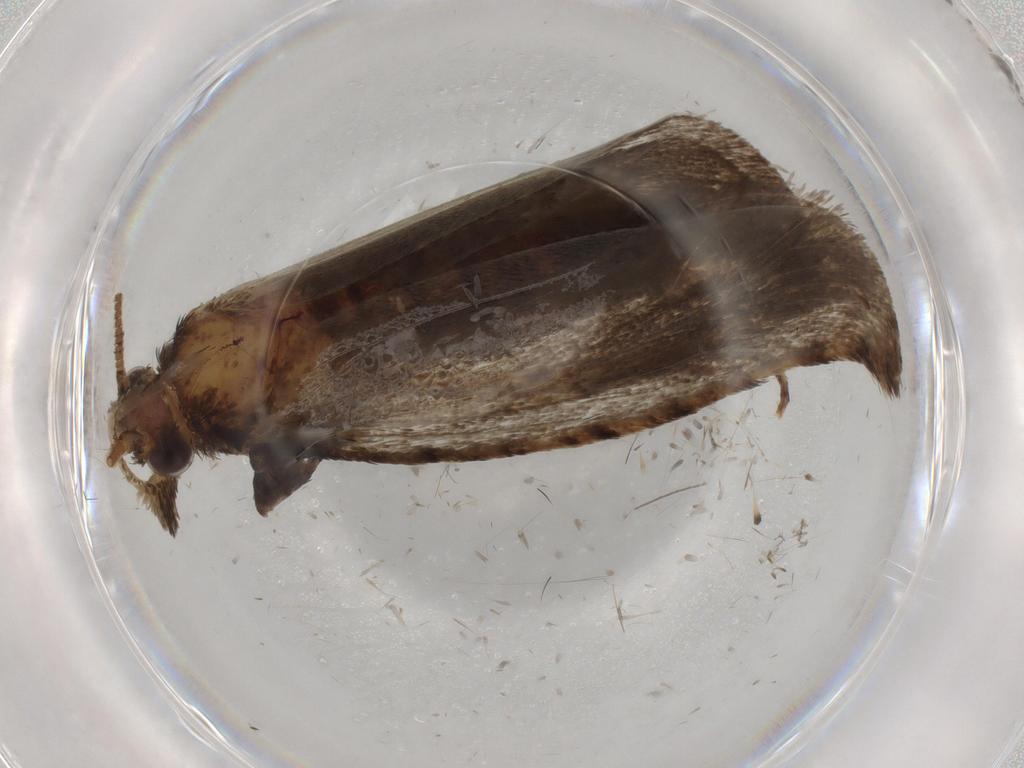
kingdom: Animalia
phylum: Arthropoda
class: Insecta
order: Lepidoptera
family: Tineidae
